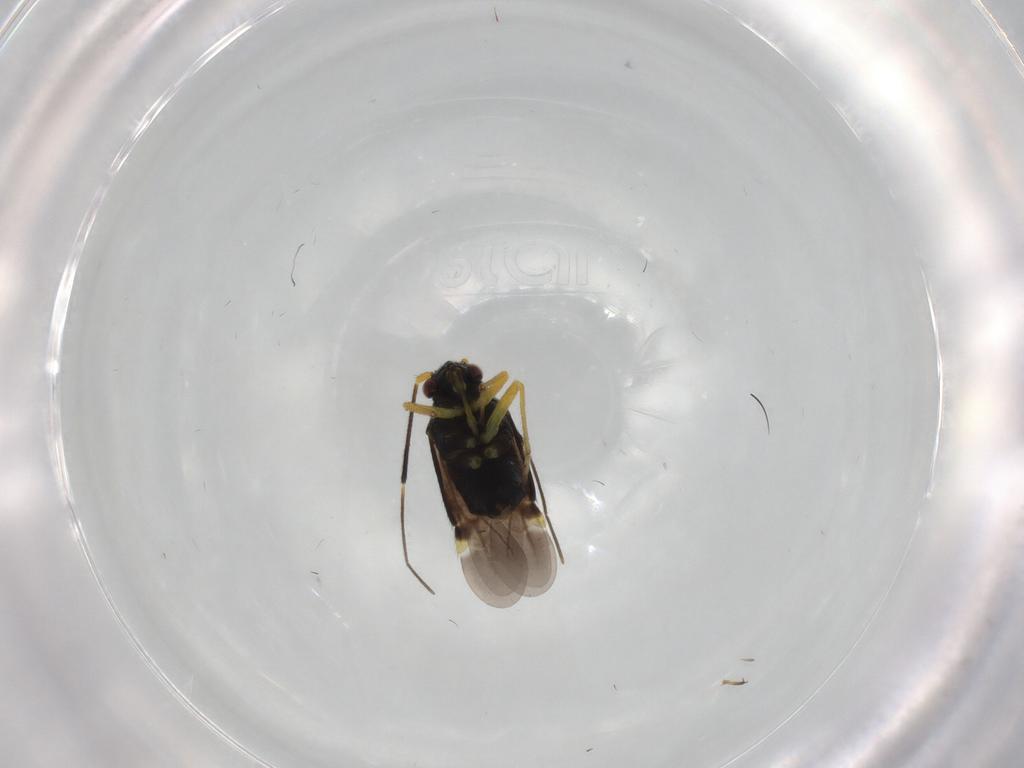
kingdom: Animalia
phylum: Arthropoda
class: Insecta
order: Hemiptera
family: Miridae
